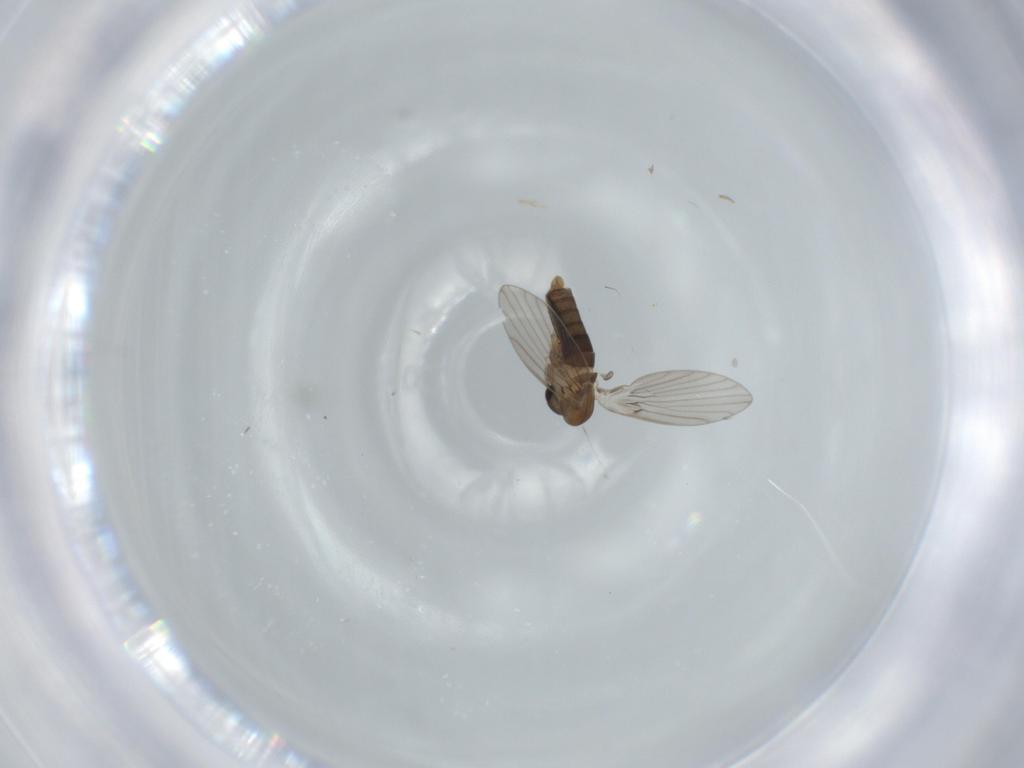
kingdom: Animalia
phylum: Arthropoda
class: Insecta
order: Diptera
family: Psychodidae
